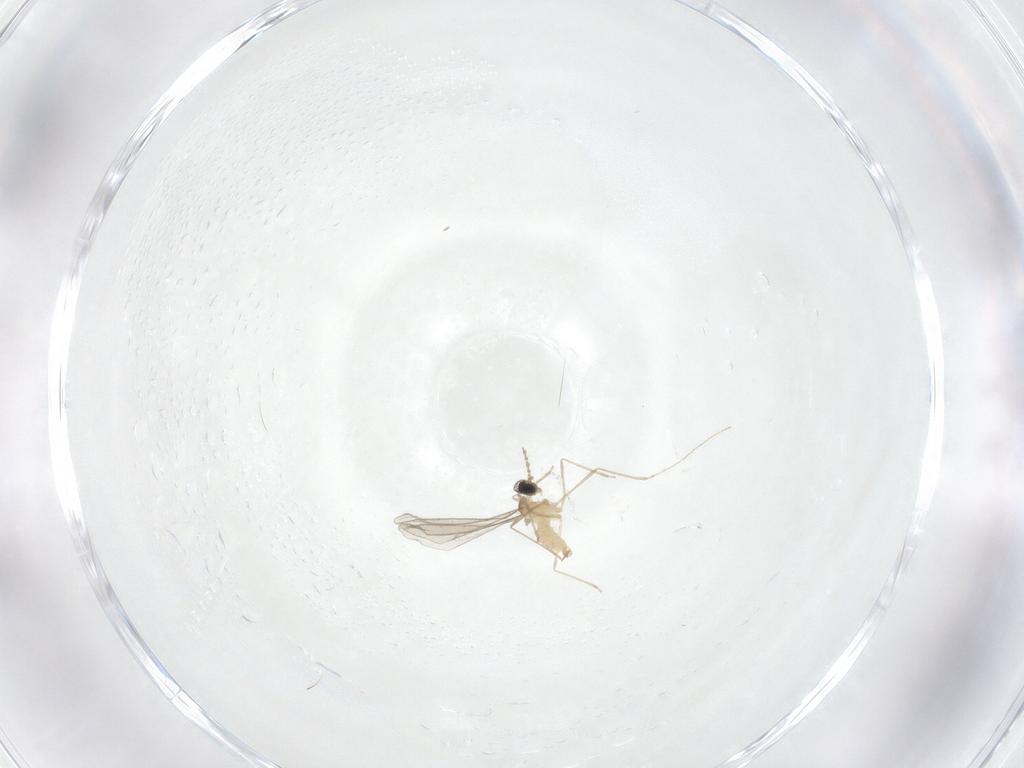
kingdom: Animalia
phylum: Arthropoda
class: Insecta
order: Diptera
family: Cecidomyiidae
